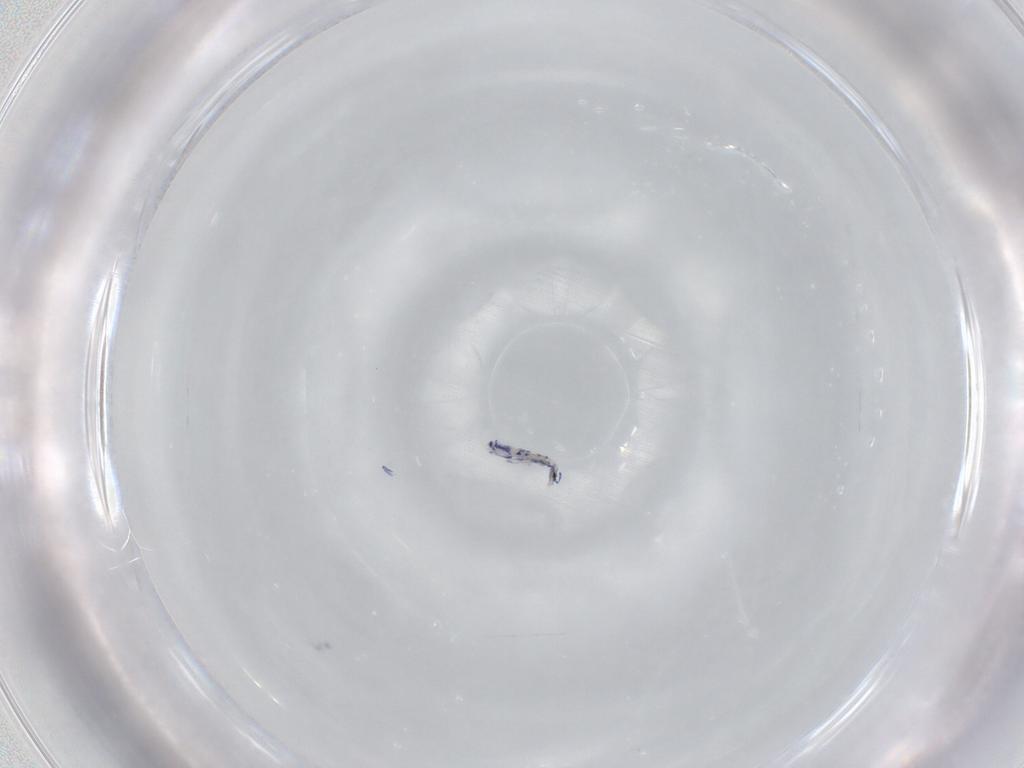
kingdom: Animalia
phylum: Arthropoda
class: Collembola
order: Entomobryomorpha
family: Entomobryidae
